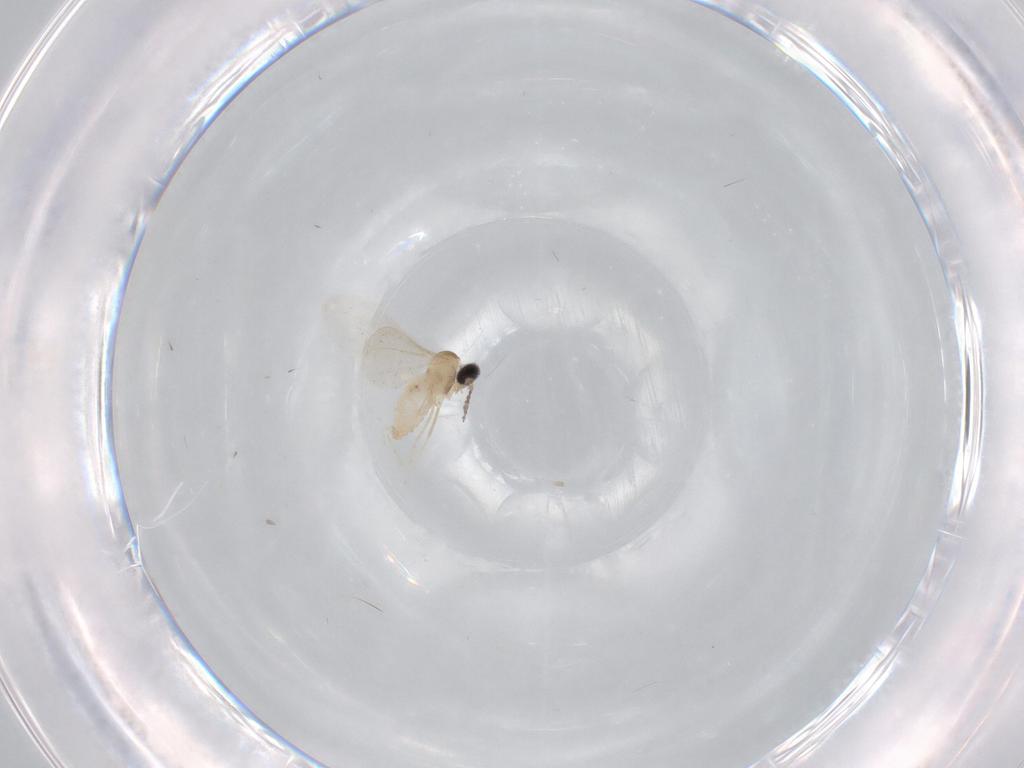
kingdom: Animalia
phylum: Arthropoda
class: Insecta
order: Diptera
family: Cecidomyiidae
